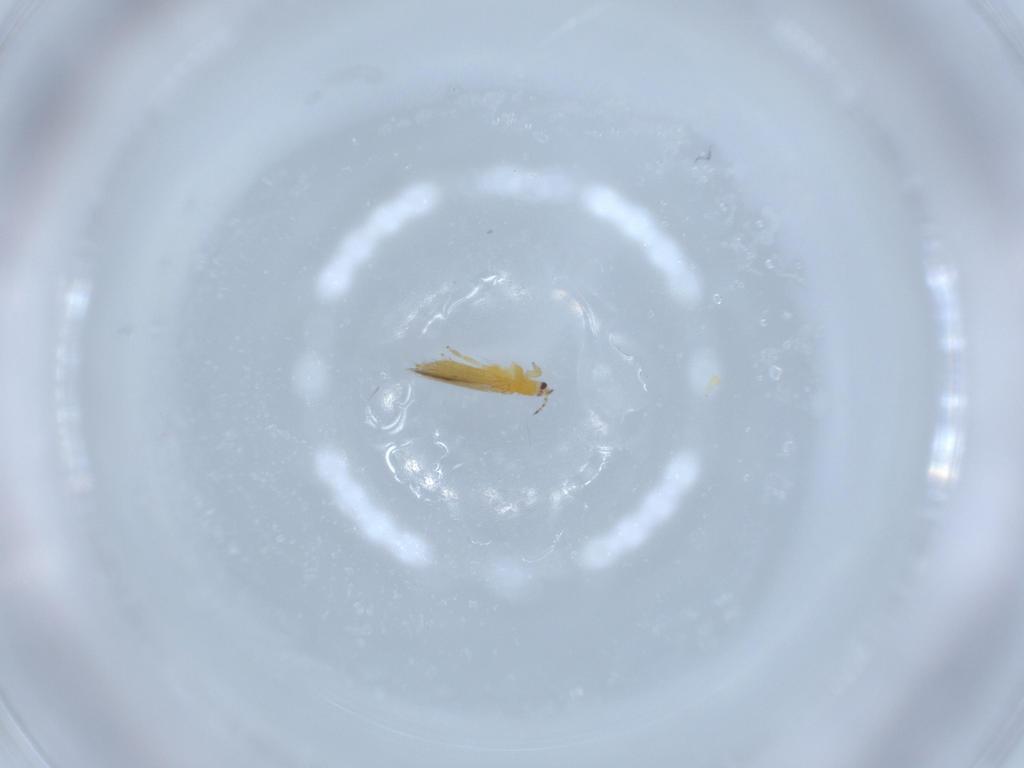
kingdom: Animalia
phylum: Arthropoda
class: Insecta
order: Thysanoptera
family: Thripidae
